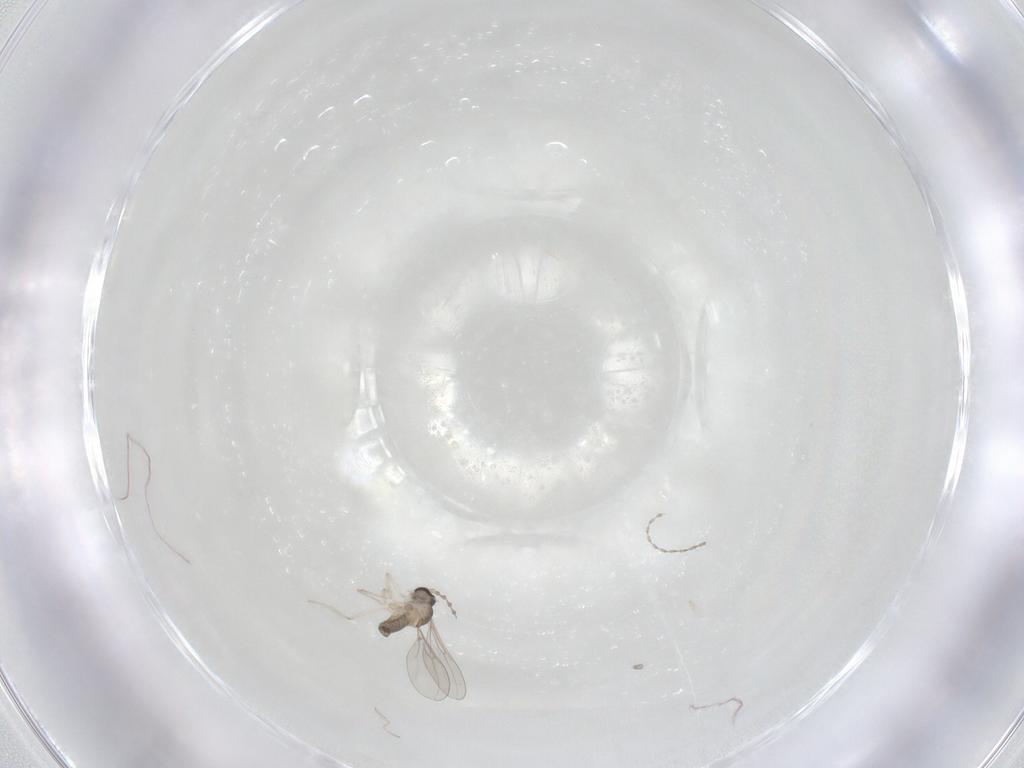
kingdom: Animalia
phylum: Arthropoda
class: Insecta
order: Diptera
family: Cecidomyiidae
